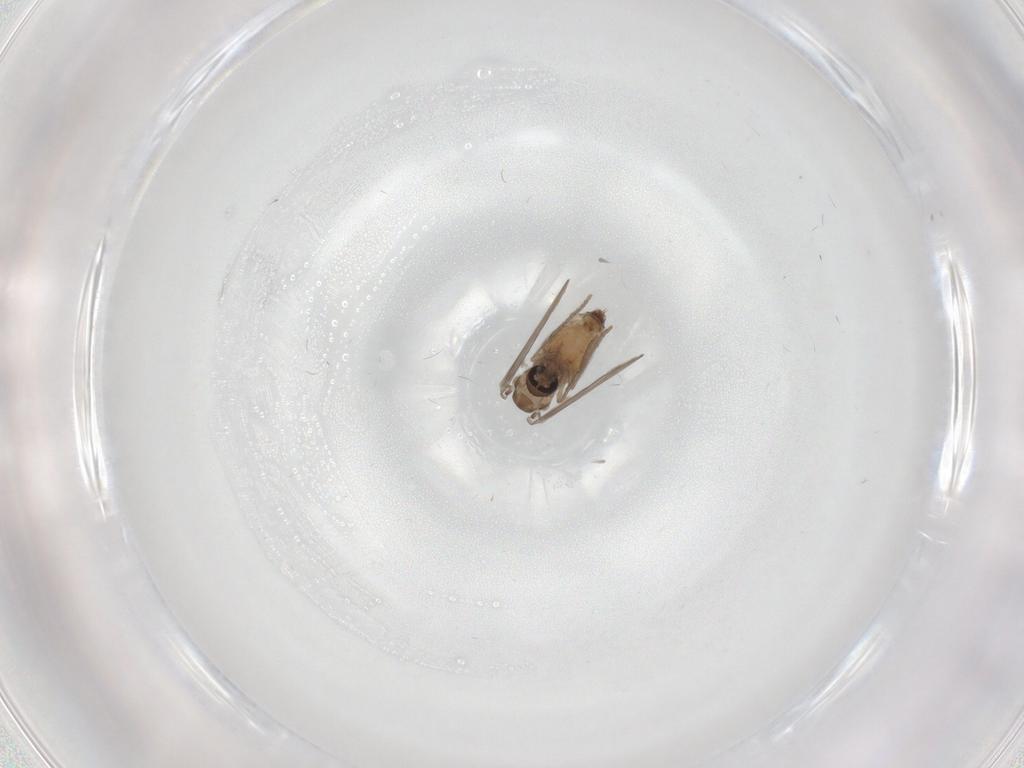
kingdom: Animalia
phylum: Arthropoda
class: Insecta
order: Diptera
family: Psychodidae
